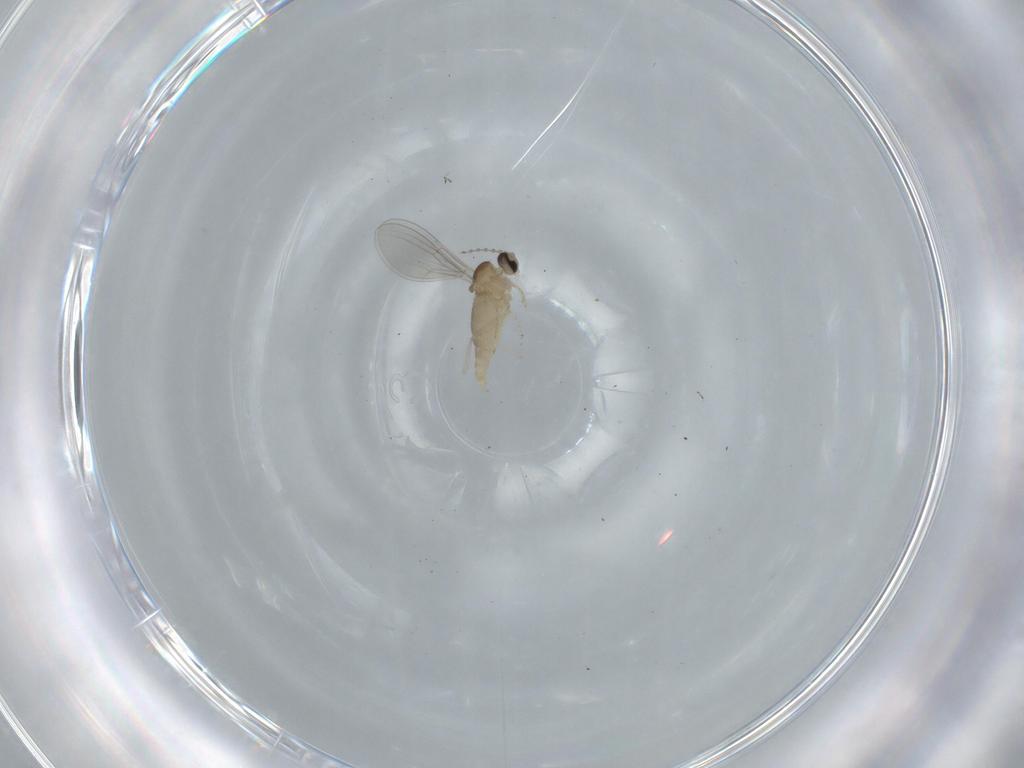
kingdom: Animalia
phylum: Arthropoda
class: Insecta
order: Diptera
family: Cecidomyiidae
